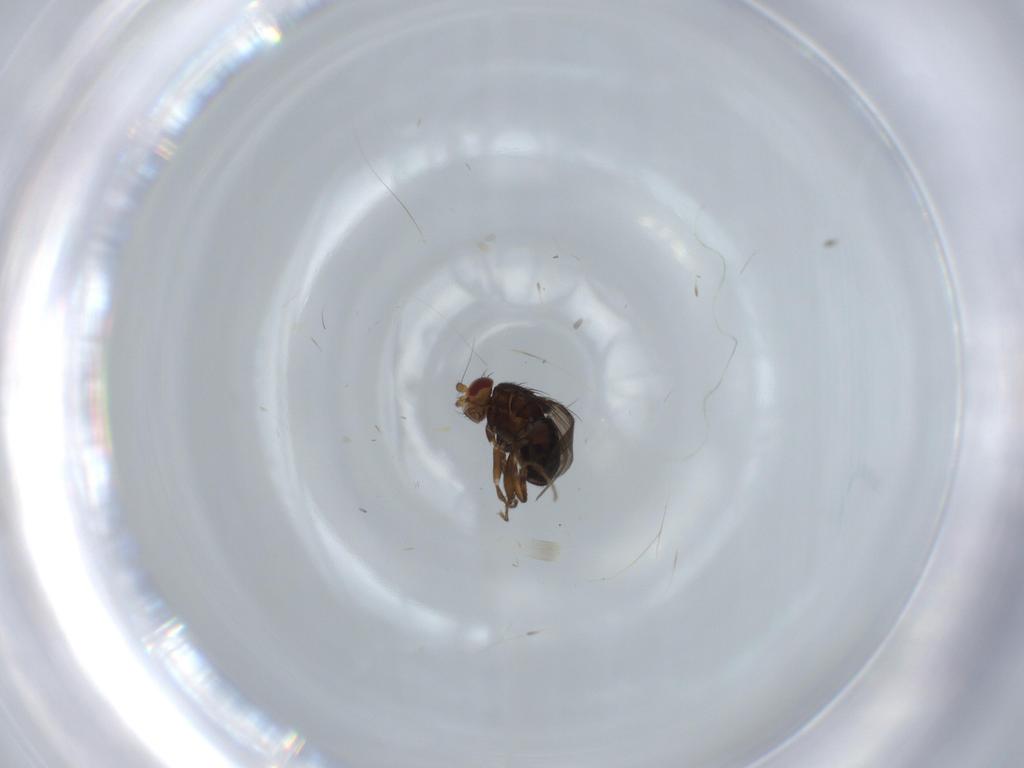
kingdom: Animalia
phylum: Arthropoda
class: Insecta
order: Diptera
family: Sphaeroceridae
